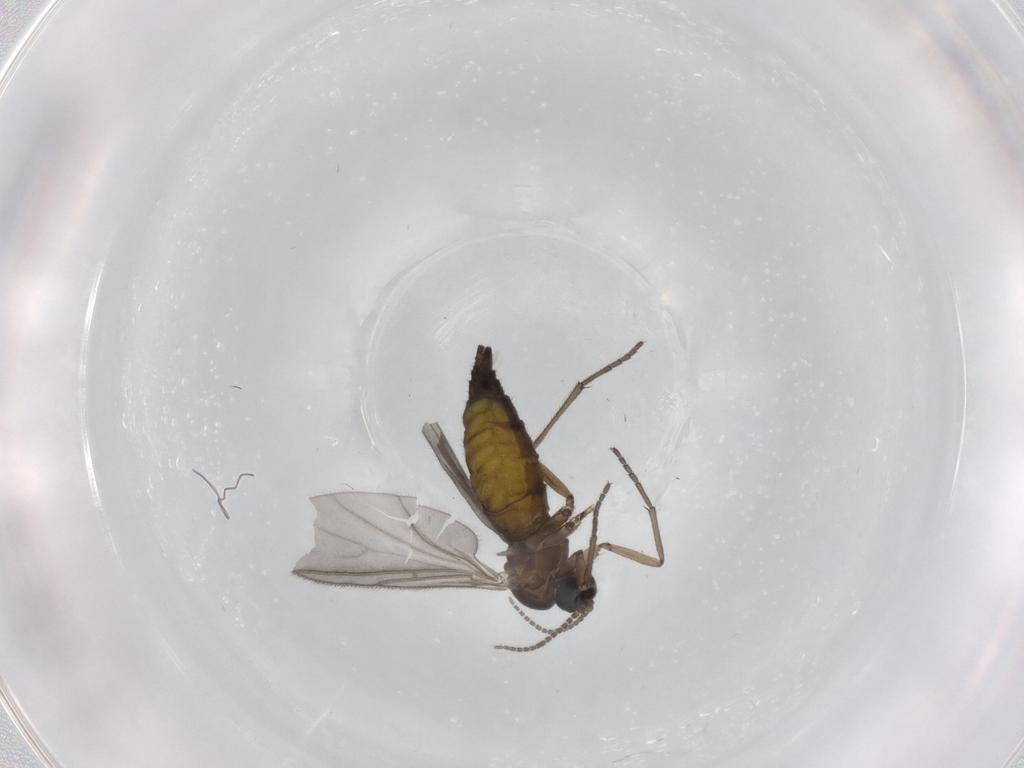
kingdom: Animalia
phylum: Arthropoda
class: Insecta
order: Diptera
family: Sciaridae
